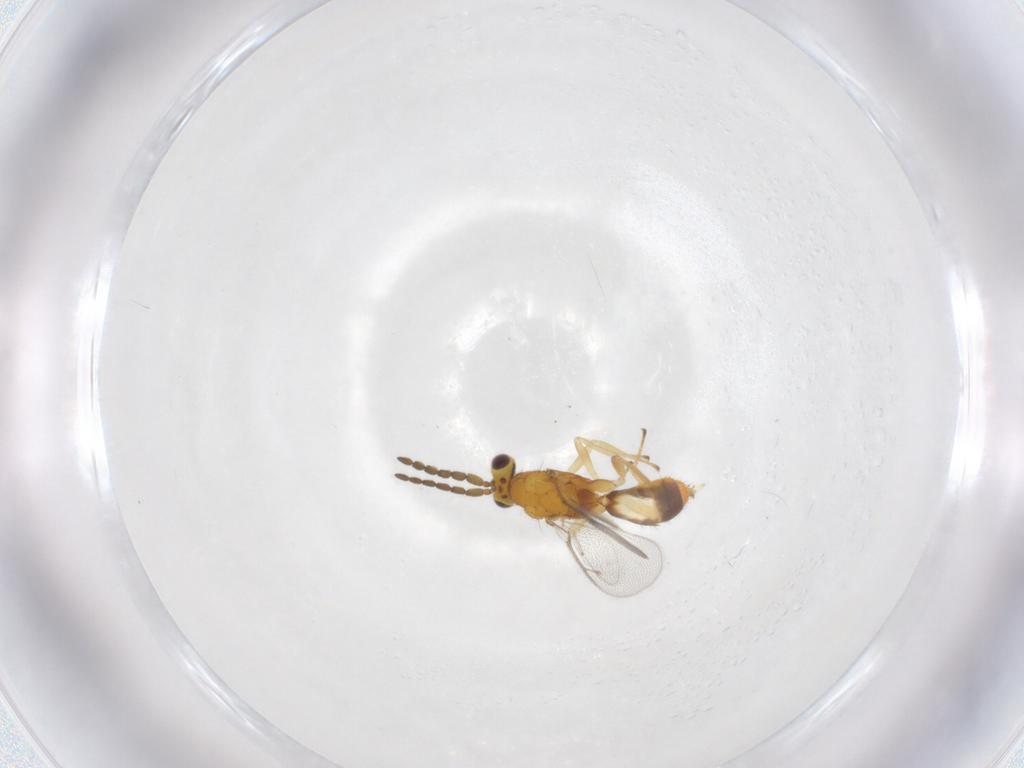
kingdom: Animalia
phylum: Arthropoda
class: Insecta
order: Hymenoptera
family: Eulophidae
